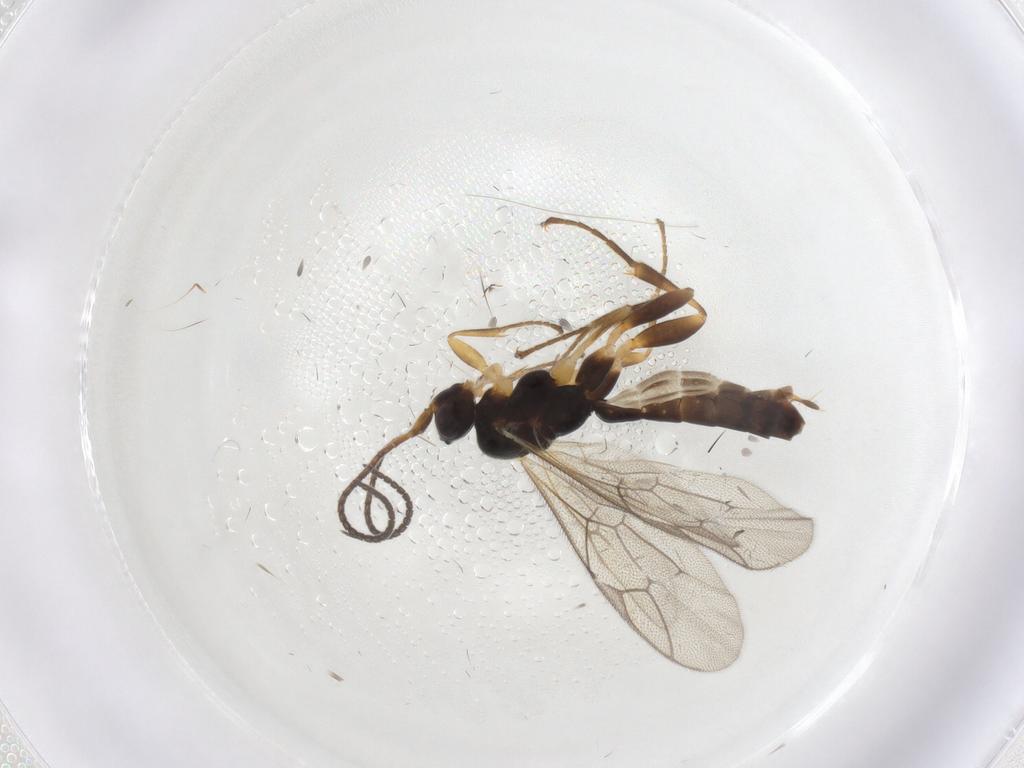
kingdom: Animalia
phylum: Arthropoda
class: Insecta
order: Hymenoptera
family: Ichneumonidae
